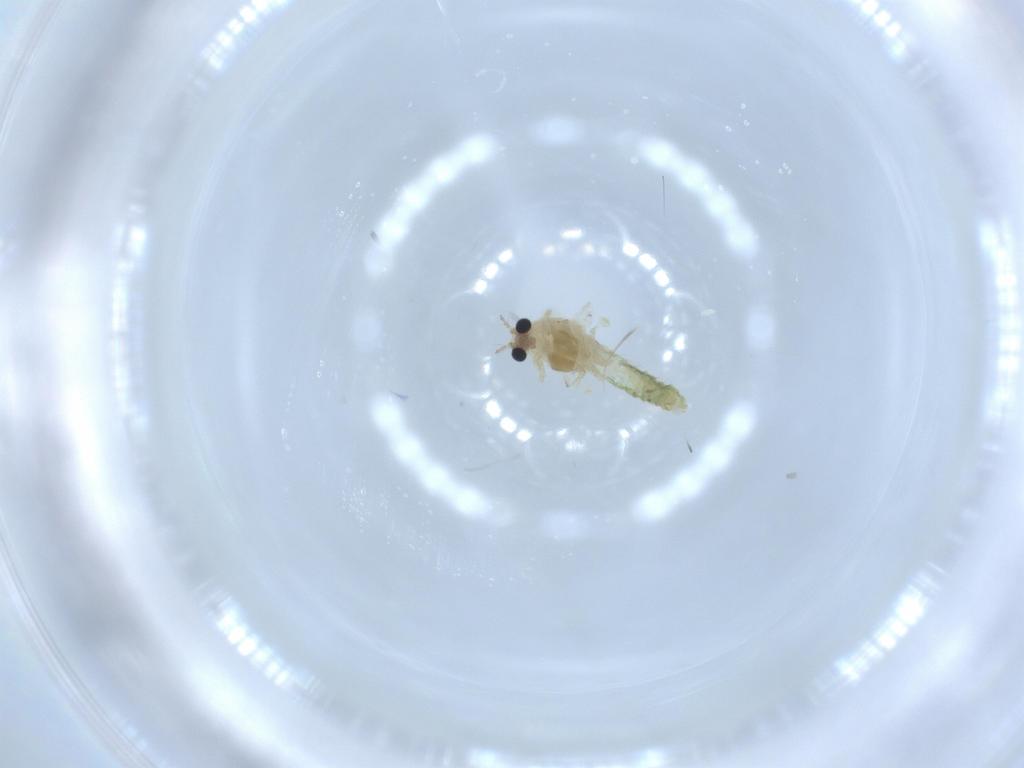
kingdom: Animalia
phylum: Arthropoda
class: Insecta
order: Diptera
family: Chironomidae
